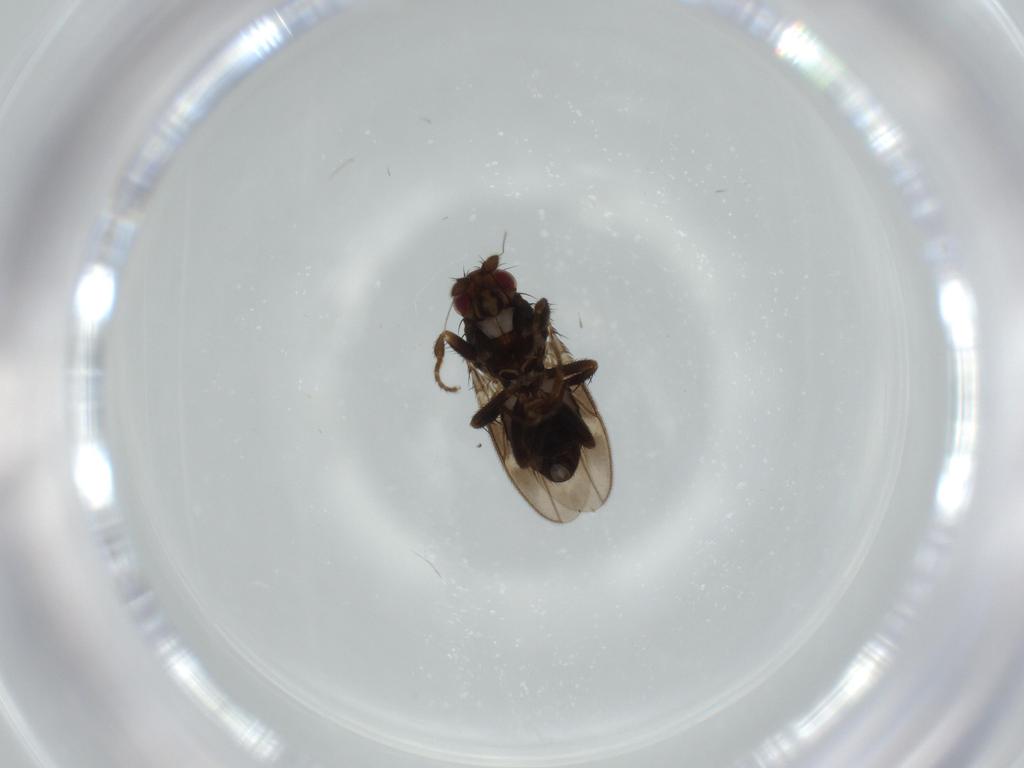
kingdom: Animalia
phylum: Arthropoda
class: Insecta
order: Diptera
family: Sphaeroceridae
